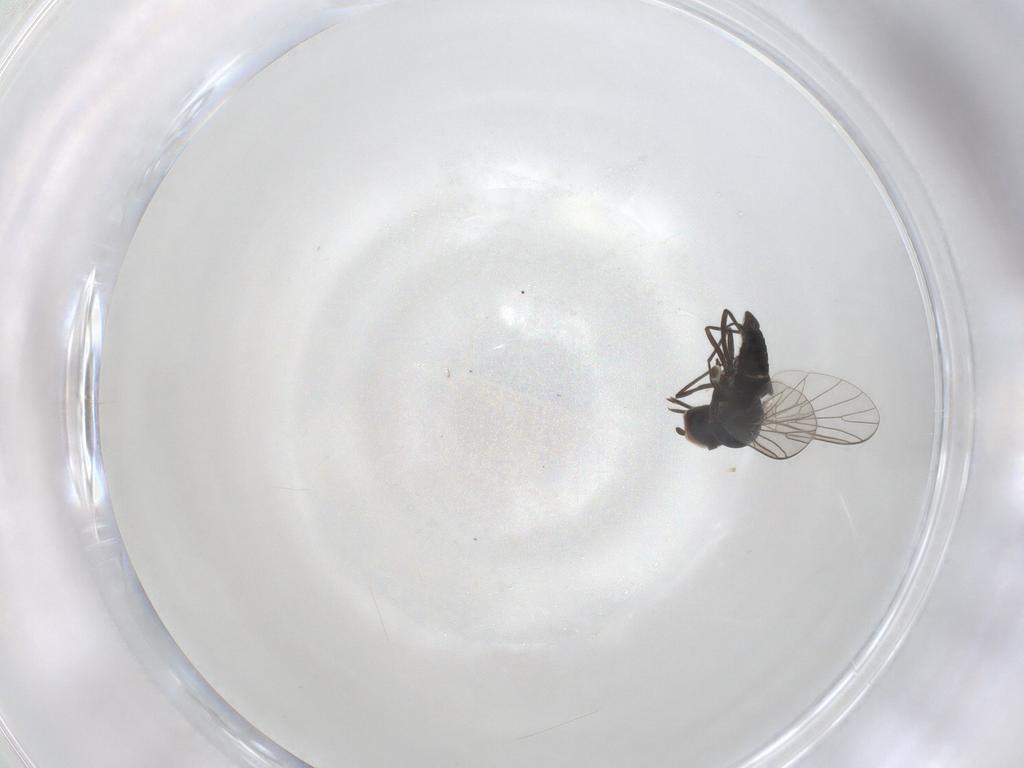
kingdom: Animalia
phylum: Arthropoda
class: Insecta
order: Diptera
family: Bombyliidae
